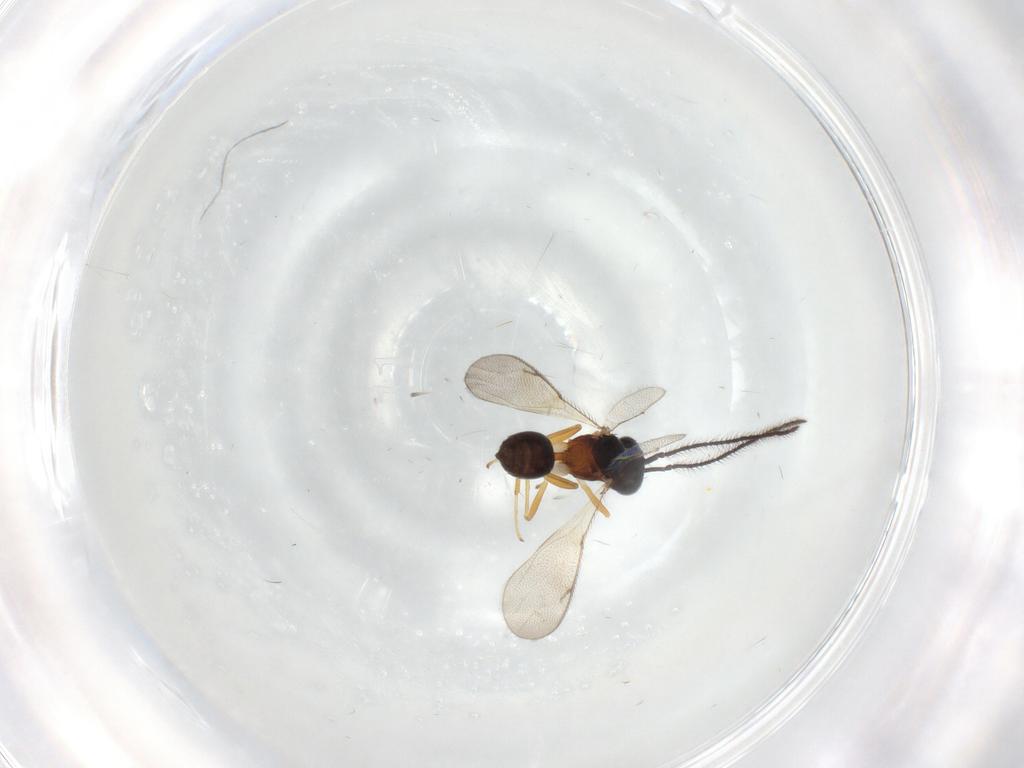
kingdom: Animalia
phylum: Arthropoda
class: Insecta
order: Hymenoptera
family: Diparidae
